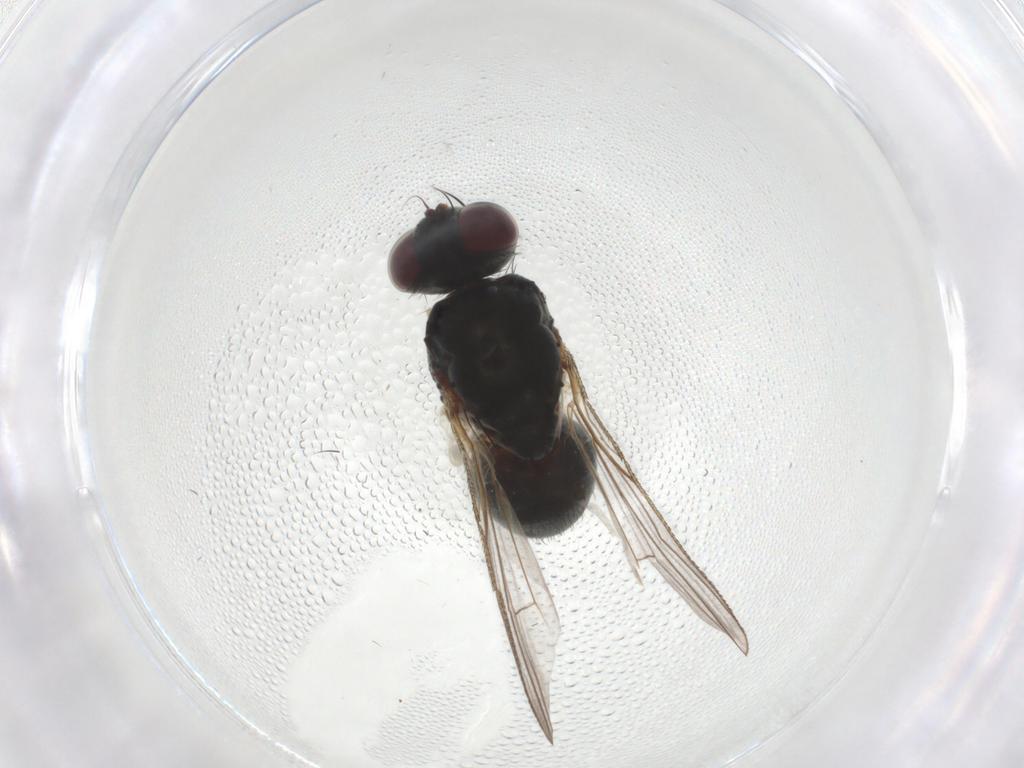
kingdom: Animalia
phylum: Arthropoda
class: Insecta
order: Diptera
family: Muscidae
